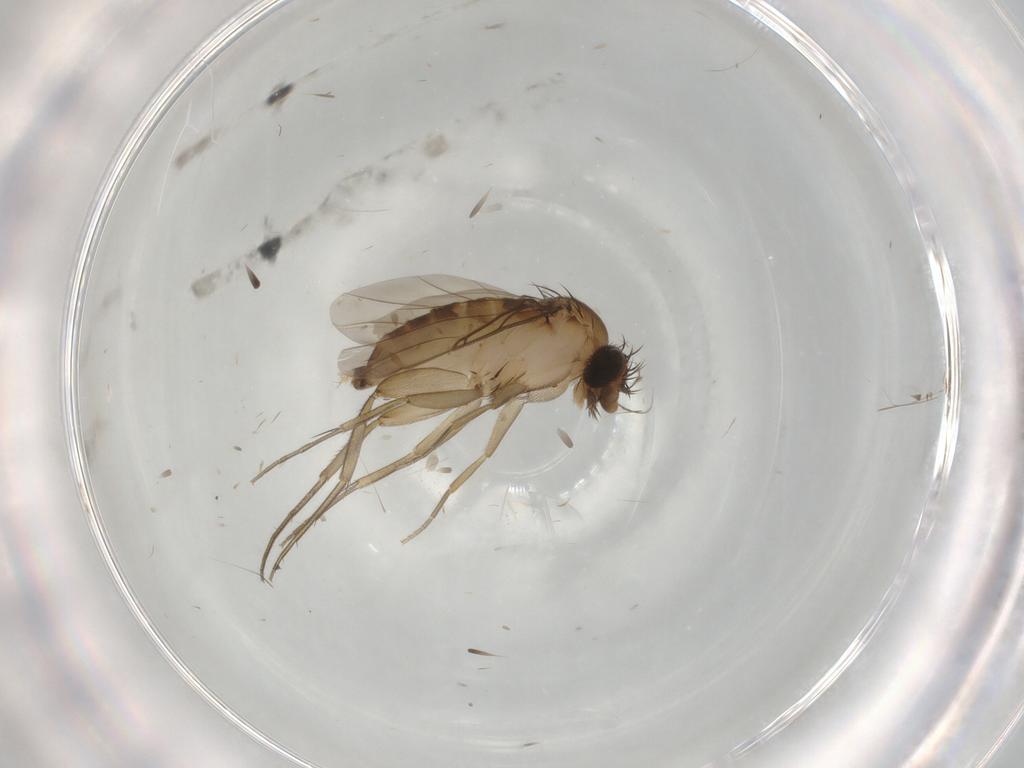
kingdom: Animalia
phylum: Arthropoda
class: Insecta
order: Diptera
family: Phoridae
